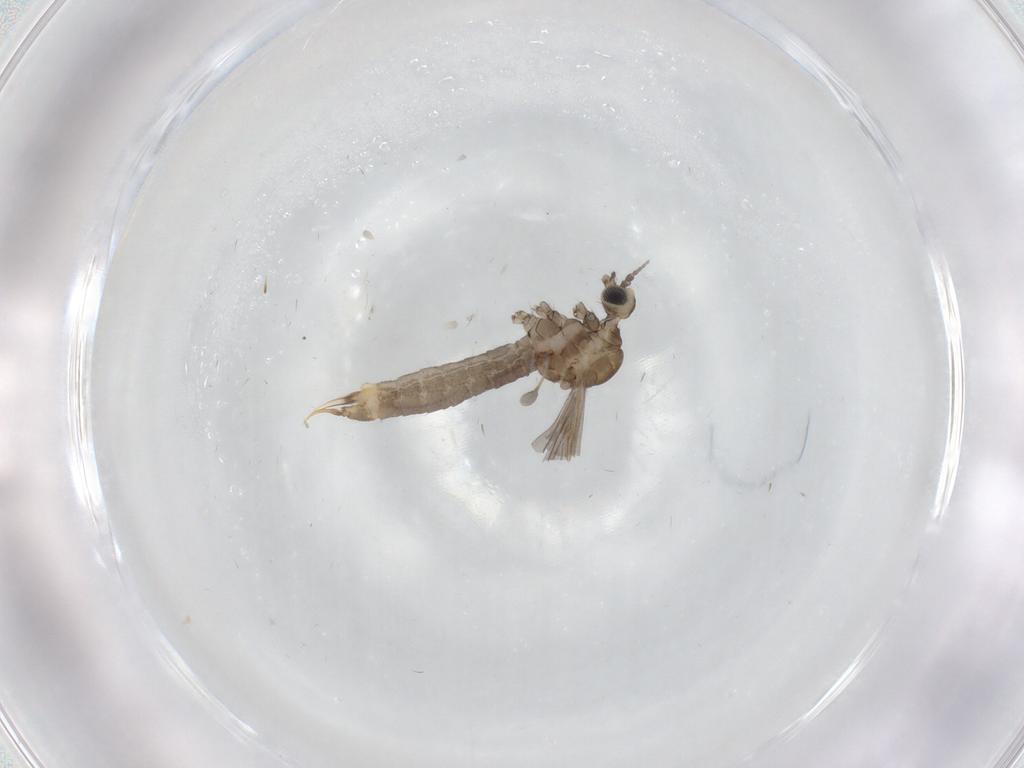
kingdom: Animalia
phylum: Arthropoda
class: Insecta
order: Diptera
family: Limoniidae
